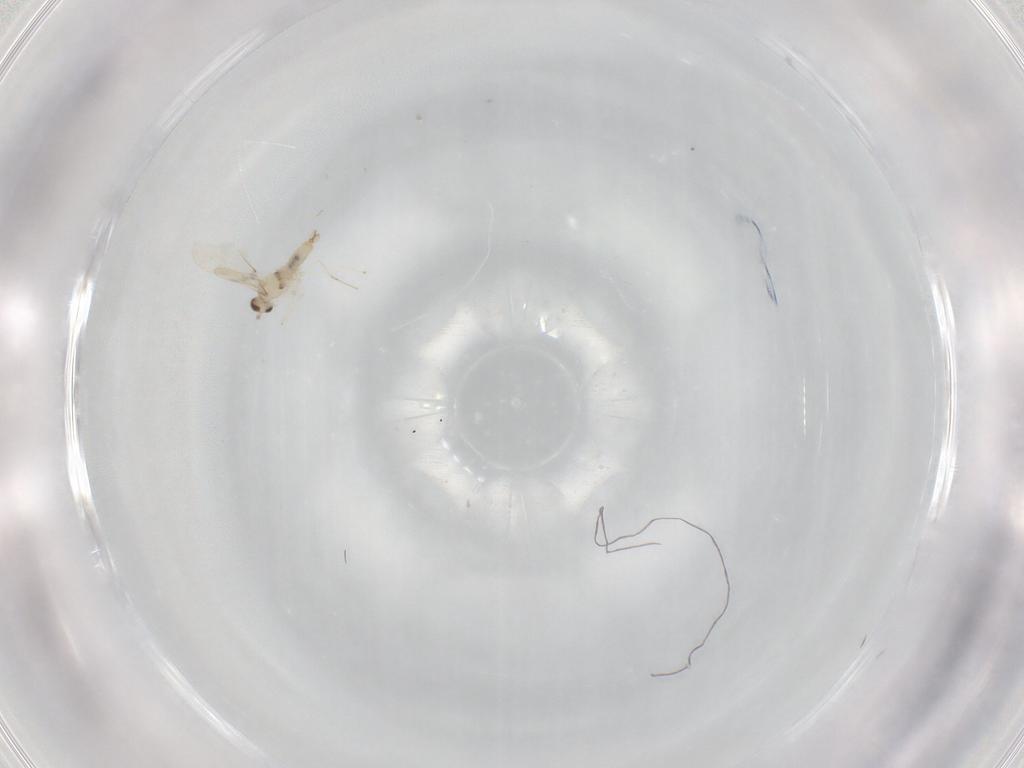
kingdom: Animalia
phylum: Arthropoda
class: Insecta
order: Diptera
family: Cecidomyiidae
